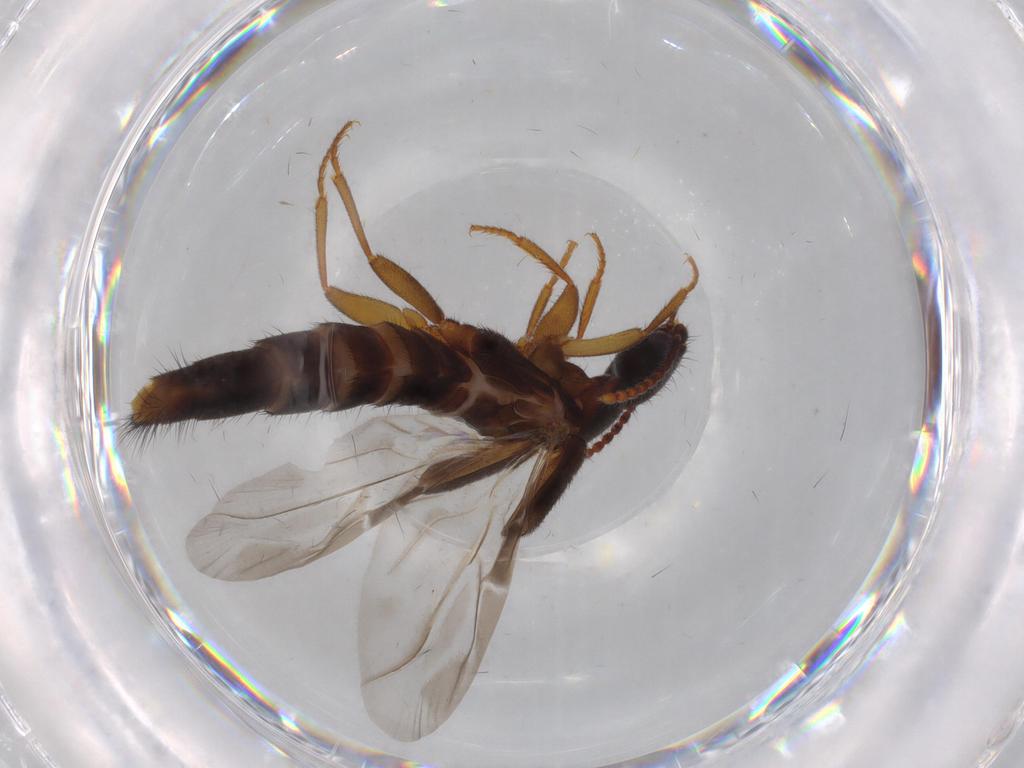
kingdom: Animalia
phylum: Arthropoda
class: Insecta
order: Coleoptera
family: Staphylinidae
